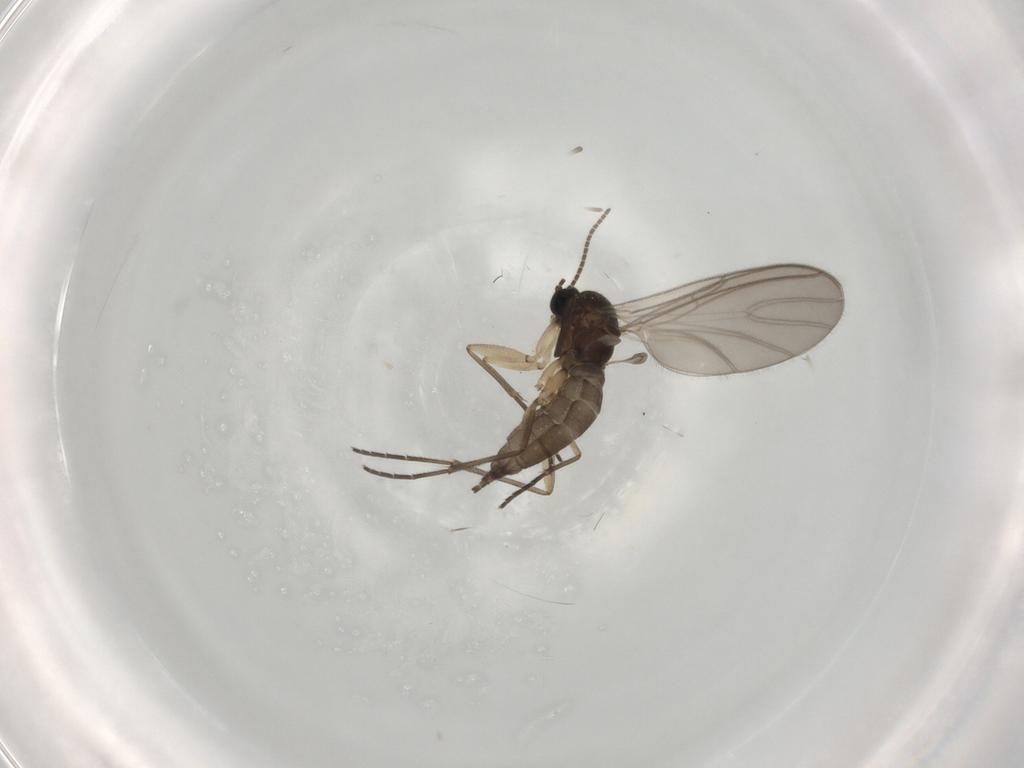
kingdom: Animalia
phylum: Arthropoda
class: Insecta
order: Diptera
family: Sciaridae
